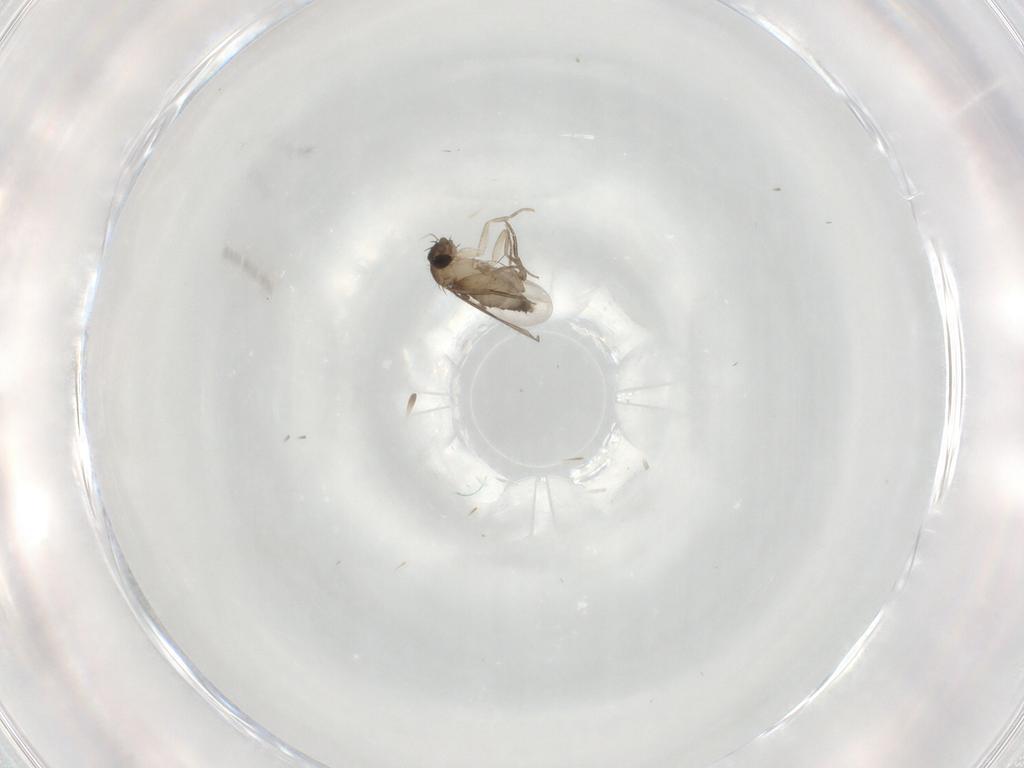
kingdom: Animalia
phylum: Arthropoda
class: Insecta
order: Diptera
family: Phoridae
